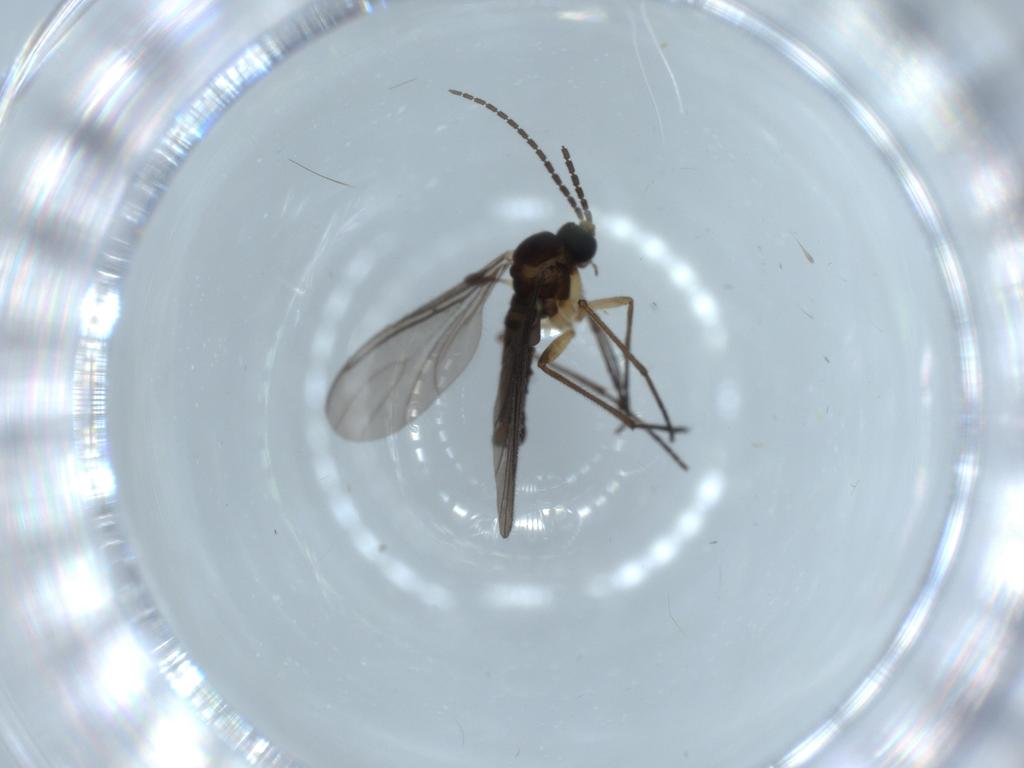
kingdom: Animalia
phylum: Arthropoda
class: Insecta
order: Diptera
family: Sciaridae
